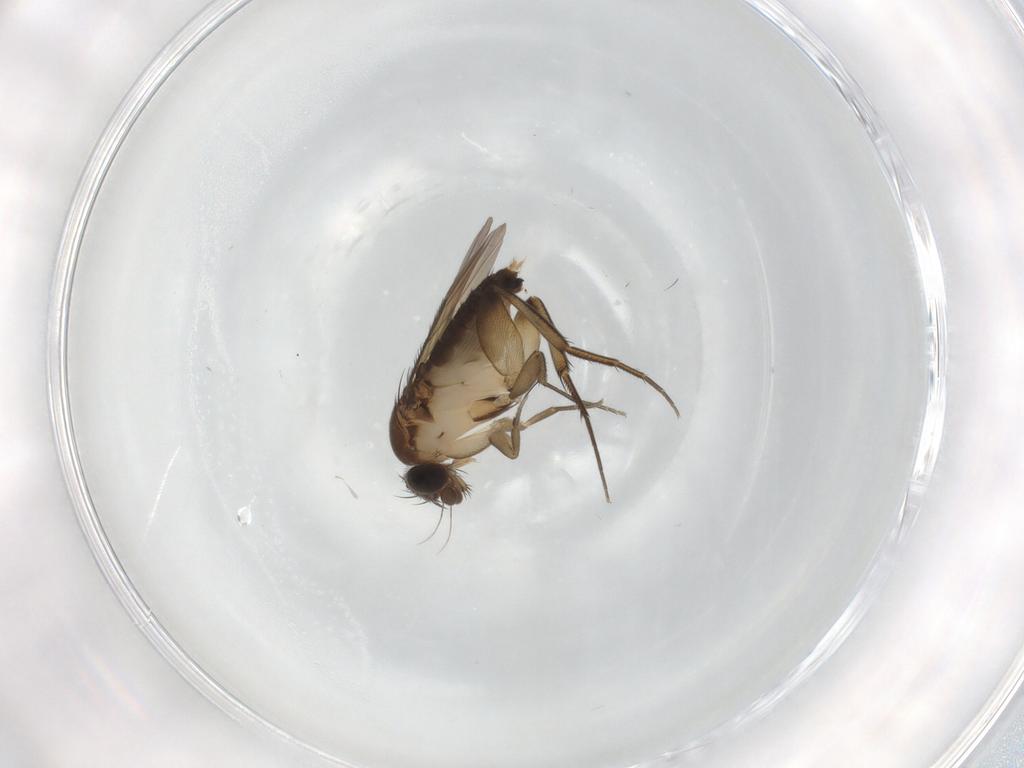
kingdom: Animalia
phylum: Arthropoda
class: Insecta
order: Diptera
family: Phoridae
